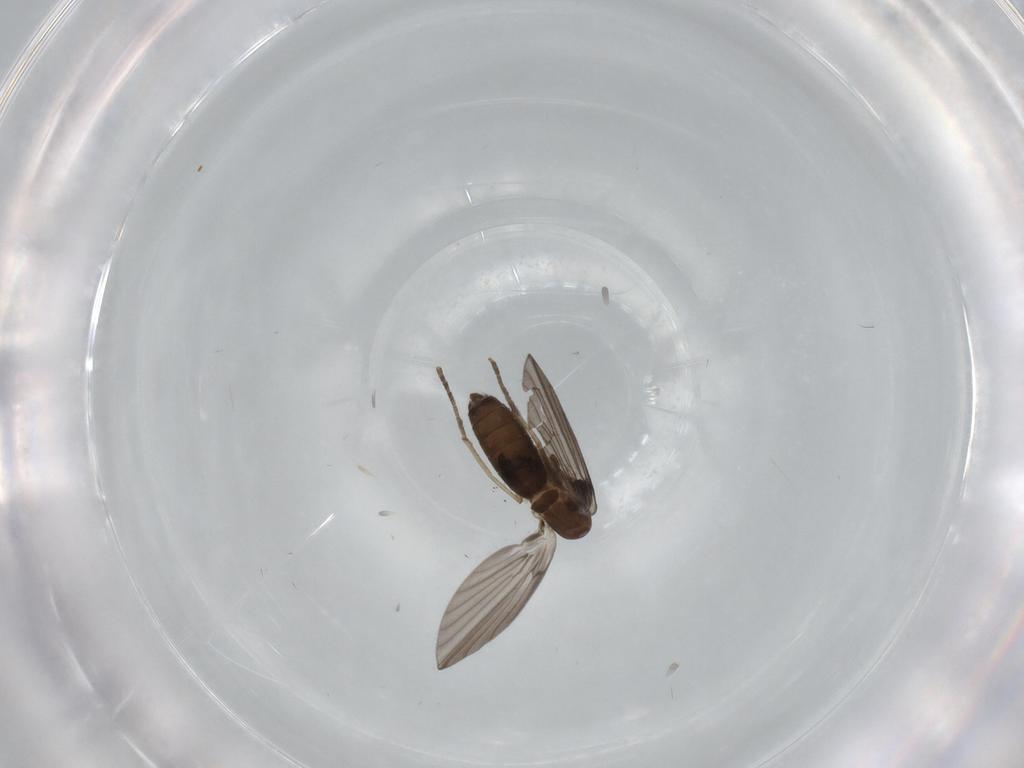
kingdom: Animalia
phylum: Arthropoda
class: Insecta
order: Diptera
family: Psychodidae
